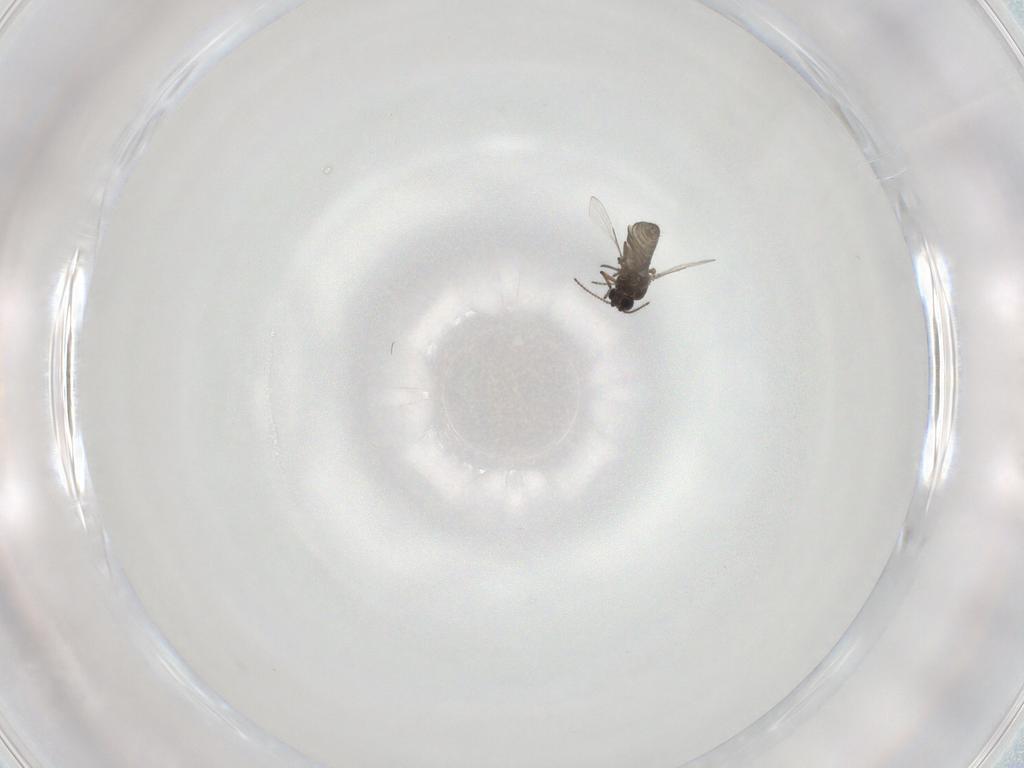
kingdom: Animalia
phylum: Arthropoda
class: Insecta
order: Diptera
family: Ceratopogonidae
